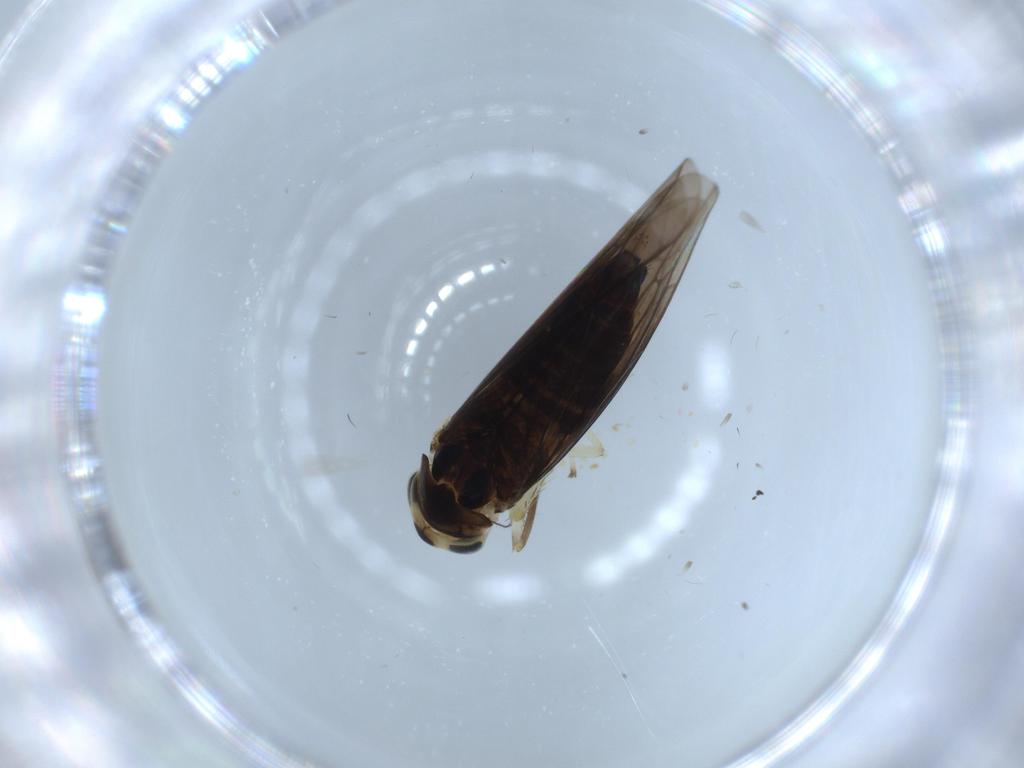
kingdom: Animalia
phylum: Arthropoda
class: Insecta
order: Hemiptera
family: Cicadellidae
